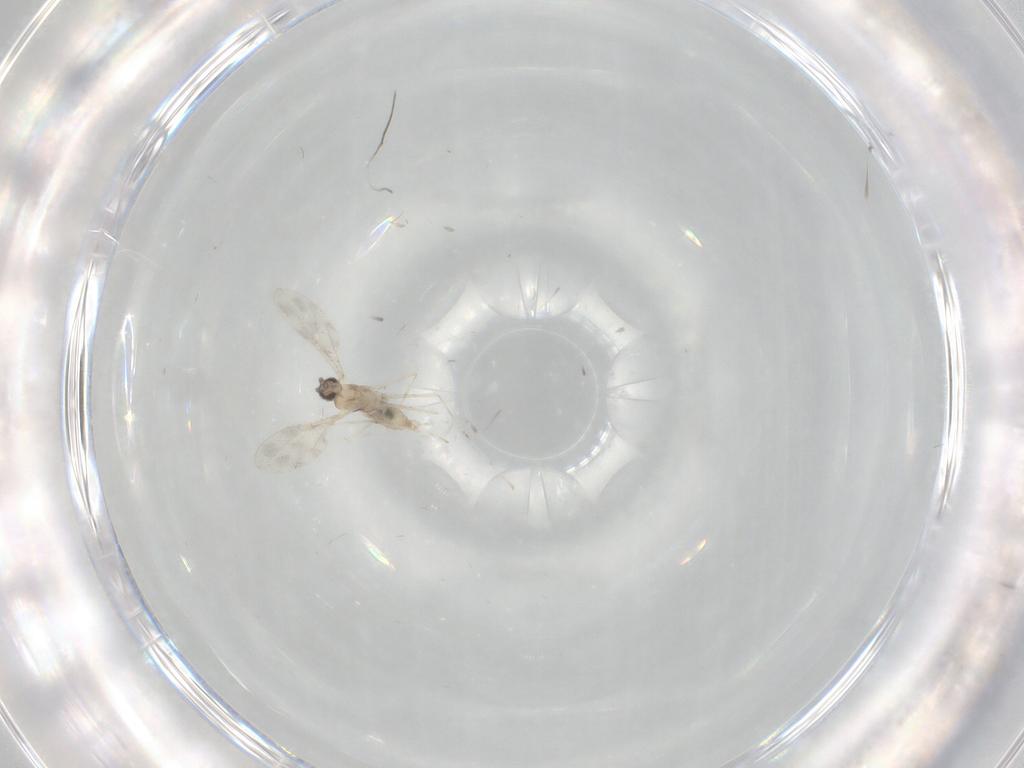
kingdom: Animalia
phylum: Arthropoda
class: Insecta
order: Diptera
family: Cecidomyiidae
